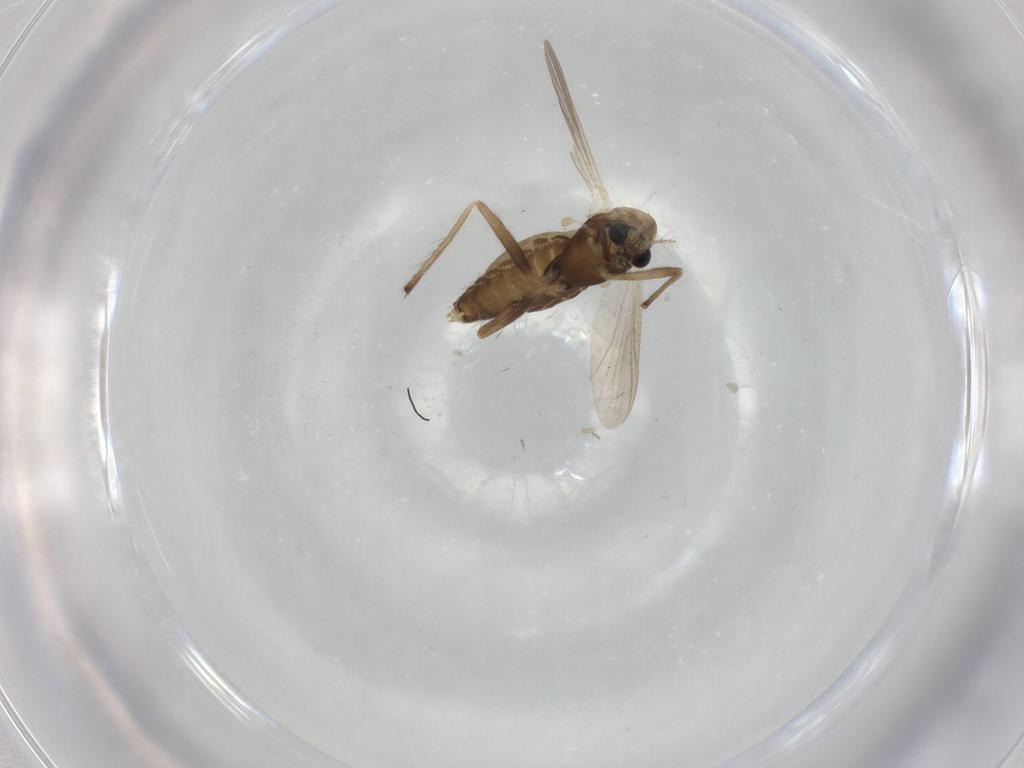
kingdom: Animalia
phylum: Arthropoda
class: Insecta
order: Diptera
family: Chironomidae
